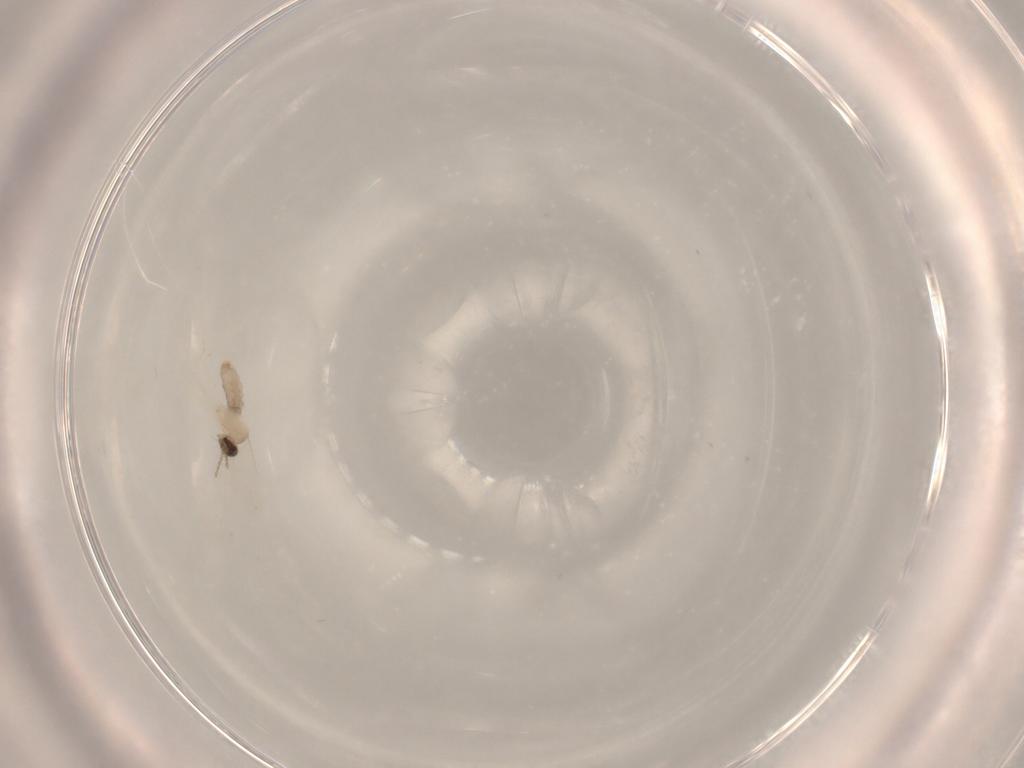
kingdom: Animalia
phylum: Arthropoda
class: Insecta
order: Diptera
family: Cecidomyiidae
